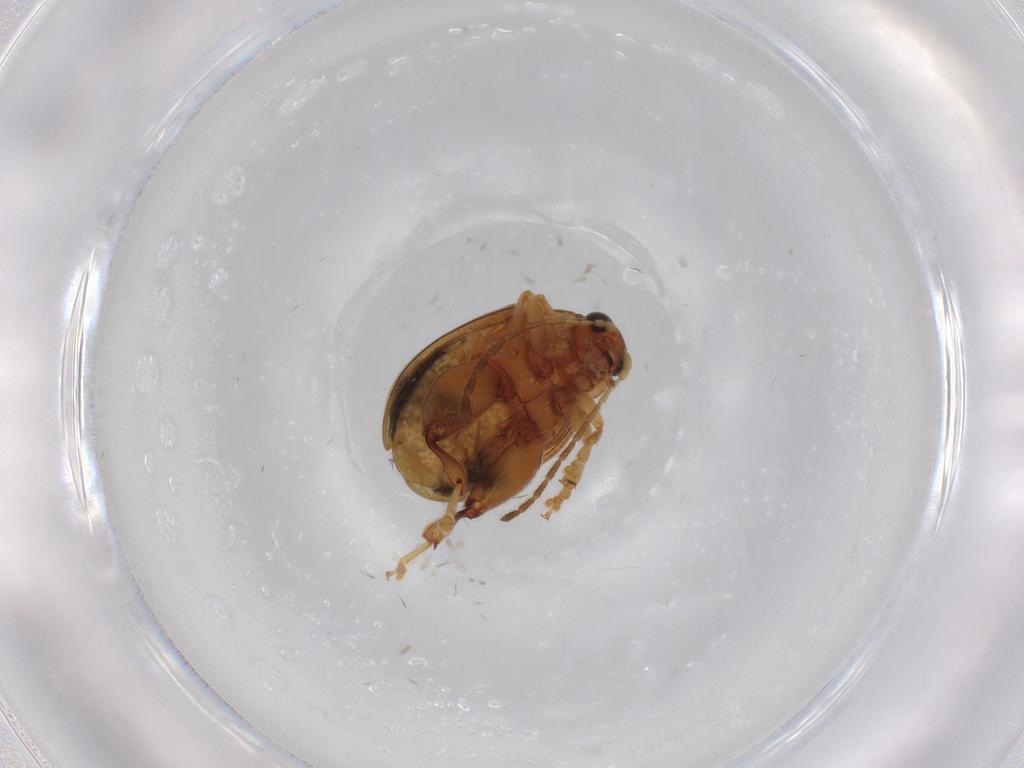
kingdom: Animalia
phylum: Arthropoda
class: Insecta
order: Coleoptera
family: Chrysomelidae
